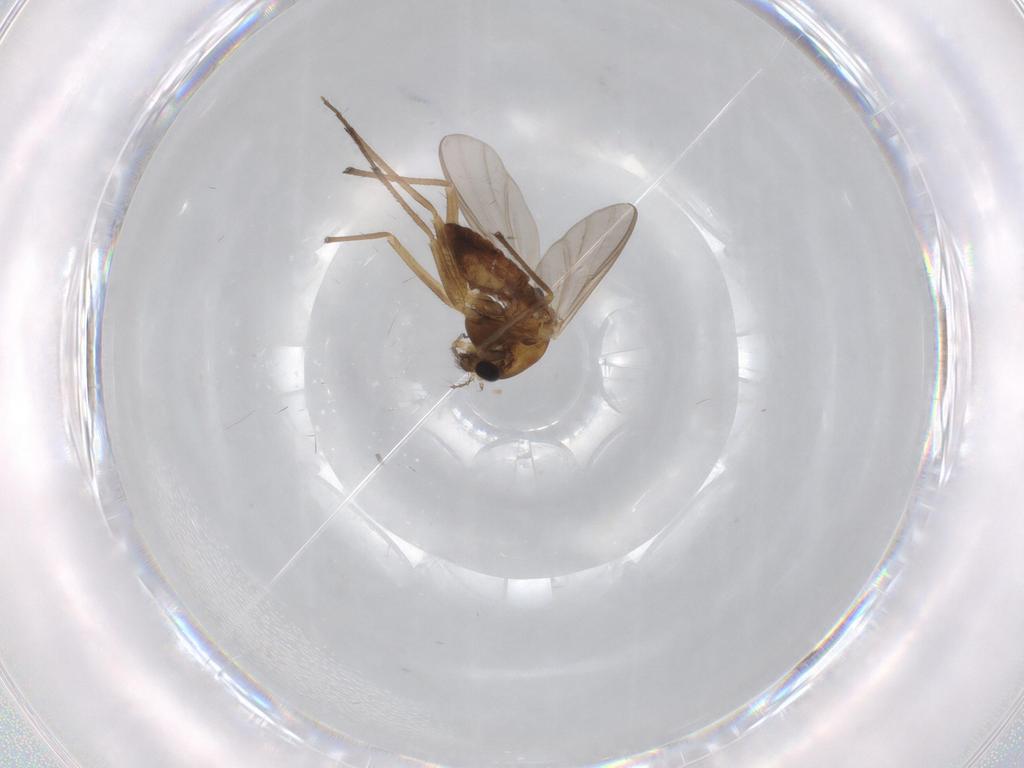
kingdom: Animalia
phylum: Arthropoda
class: Insecta
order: Diptera
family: Chironomidae
